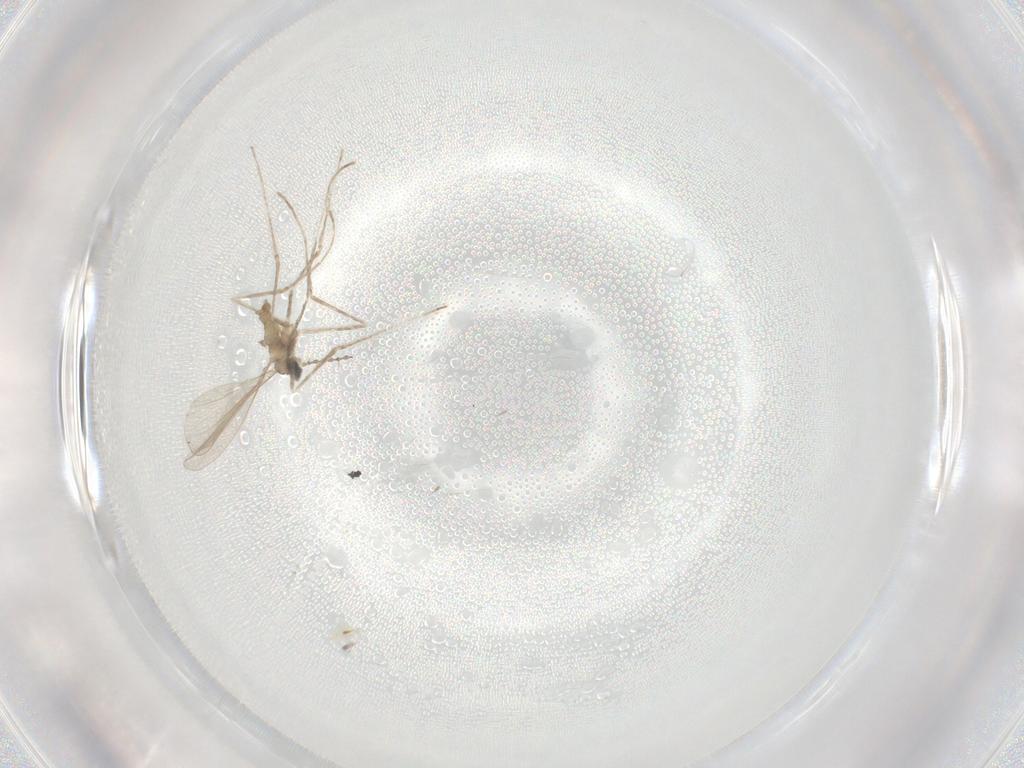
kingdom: Animalia
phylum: Arthropoda
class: Insecta
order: Diptera
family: Cecidomyiidae
